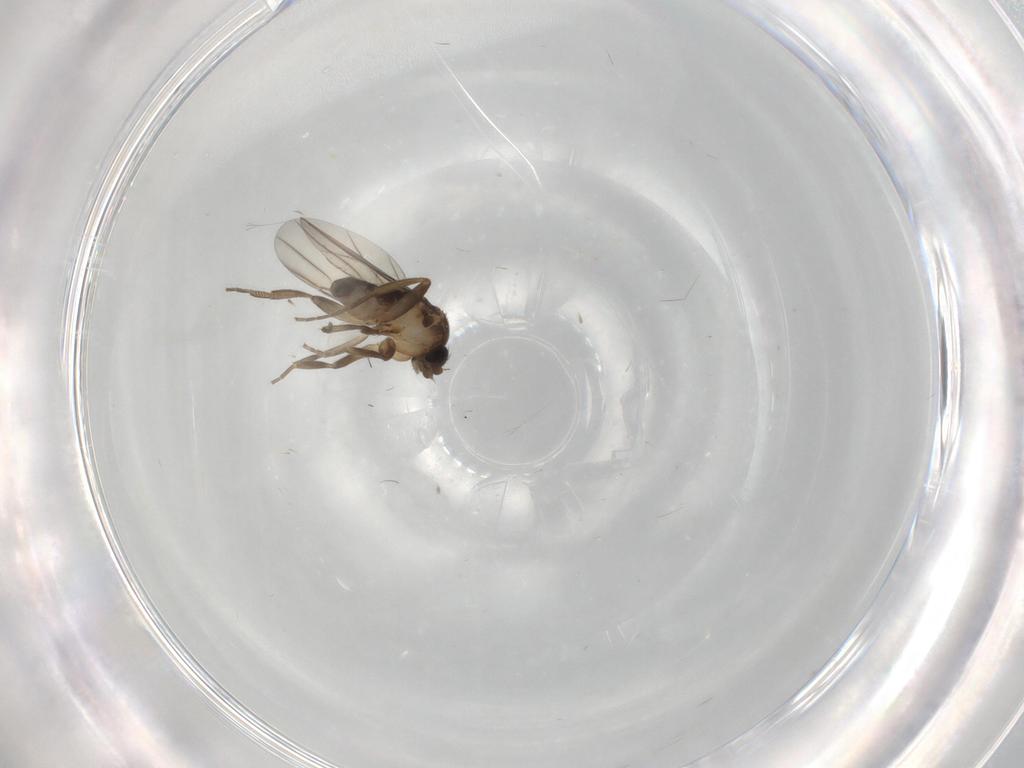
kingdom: Animalia
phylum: Arthropoda
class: Insecta
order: Diptera
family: Phoridae
